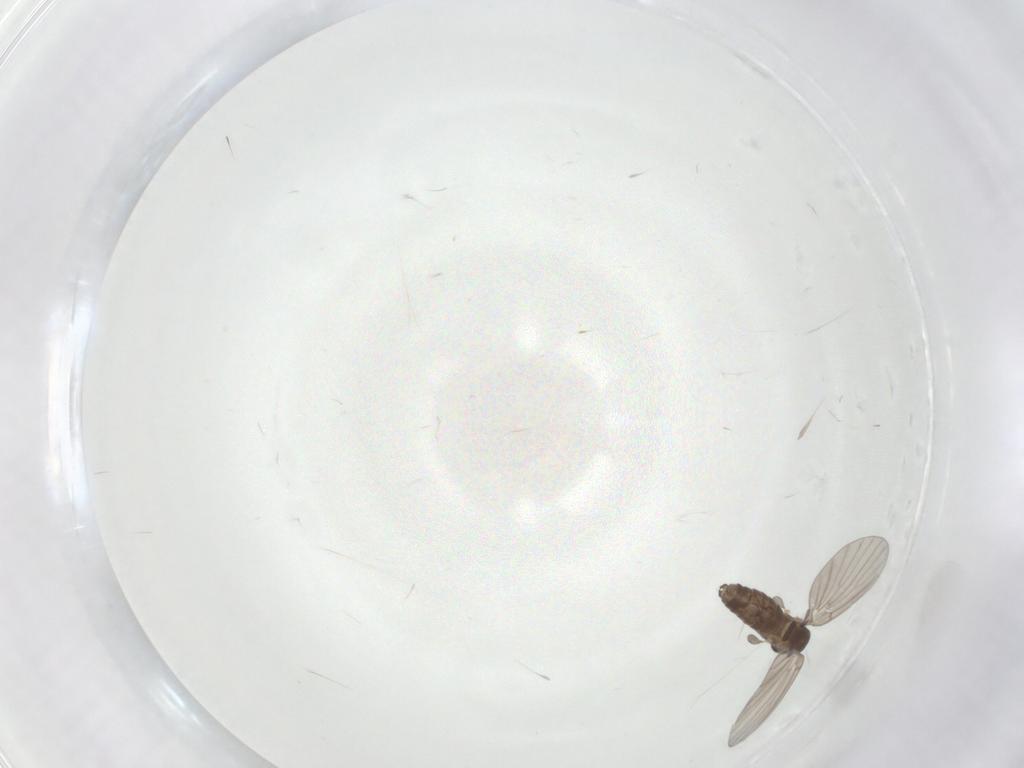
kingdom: Animalia
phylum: Arthropoda
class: Insecta
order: Diptera
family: Psychodidae
